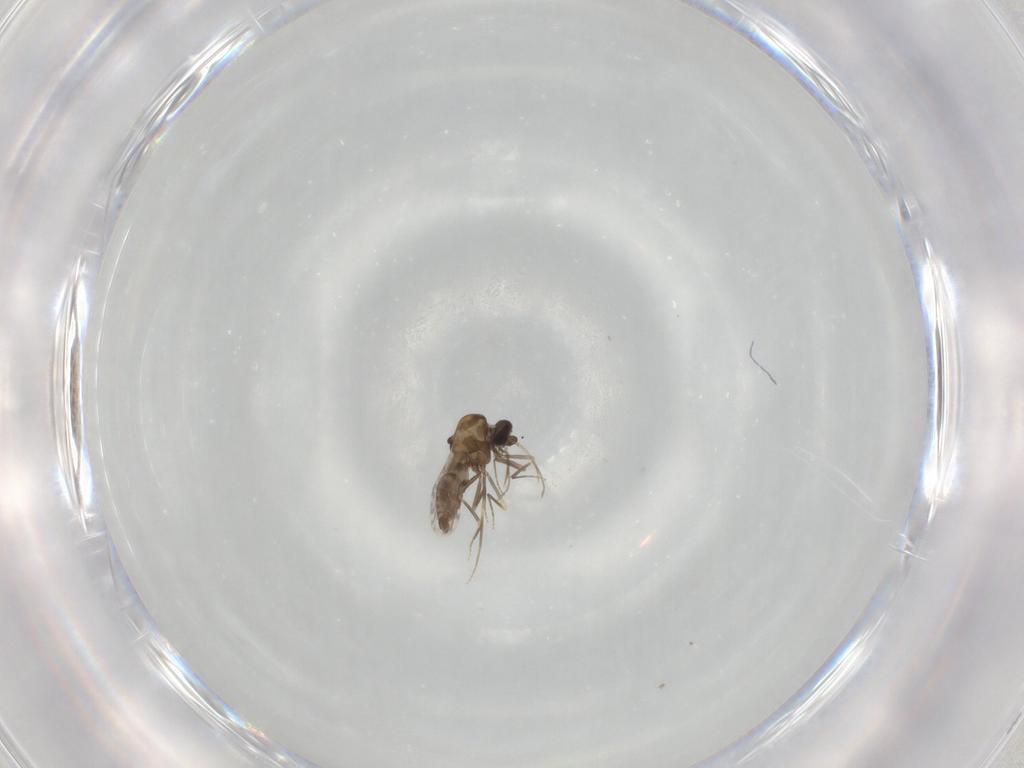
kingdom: Animalia
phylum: Arthropoda
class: Insecta
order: Diptera
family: Ceratopogonidae
